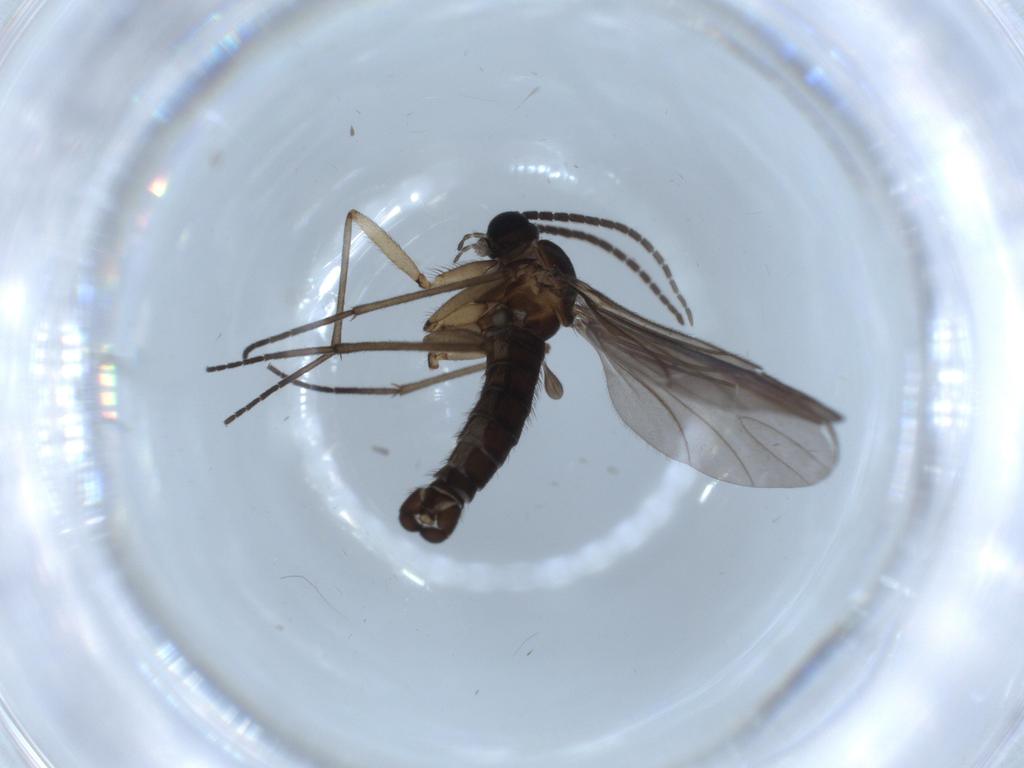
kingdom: Animalia
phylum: Arthropoda
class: Insecta
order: Diptera
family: Sciaridae
